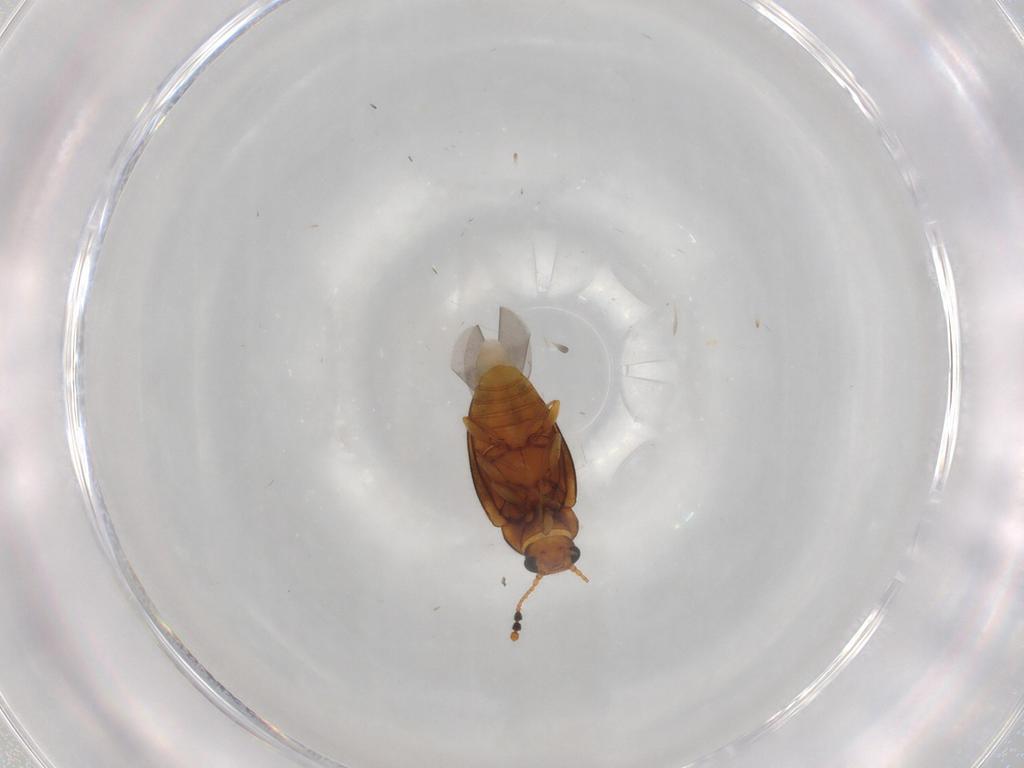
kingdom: Animalia
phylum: Arthropoda
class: Insecta
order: Coleoptera
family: Erotylidae
